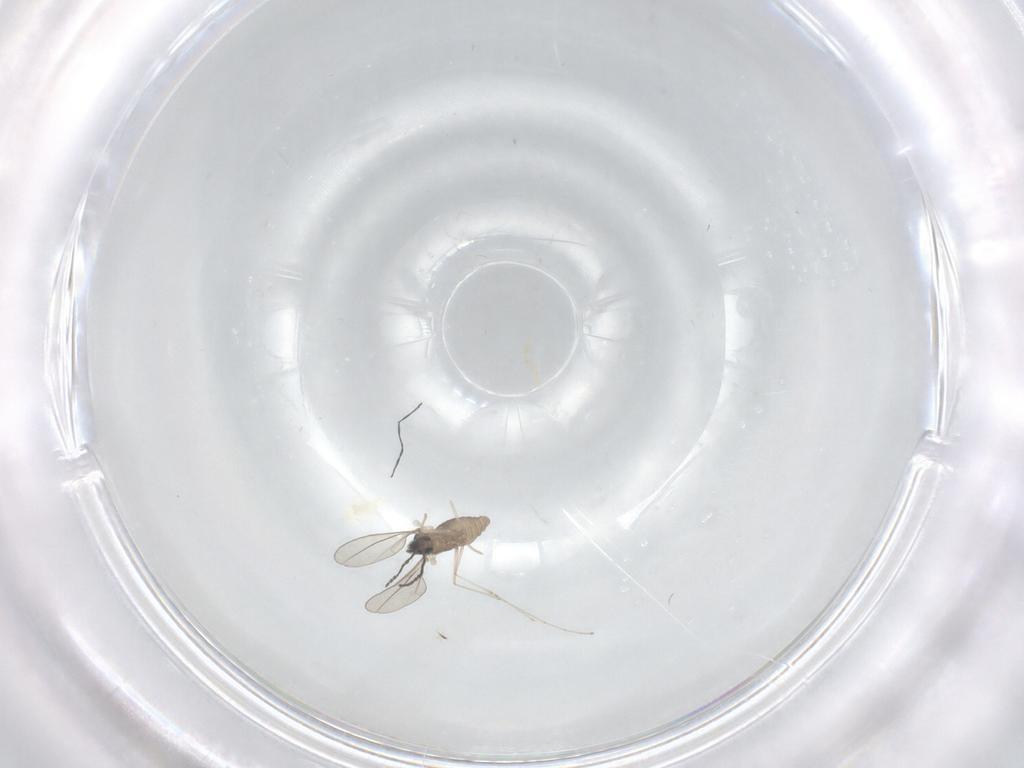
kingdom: Animalia
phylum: Arthropoda
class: Insecta
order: Diptera
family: Cecidomyiidae
